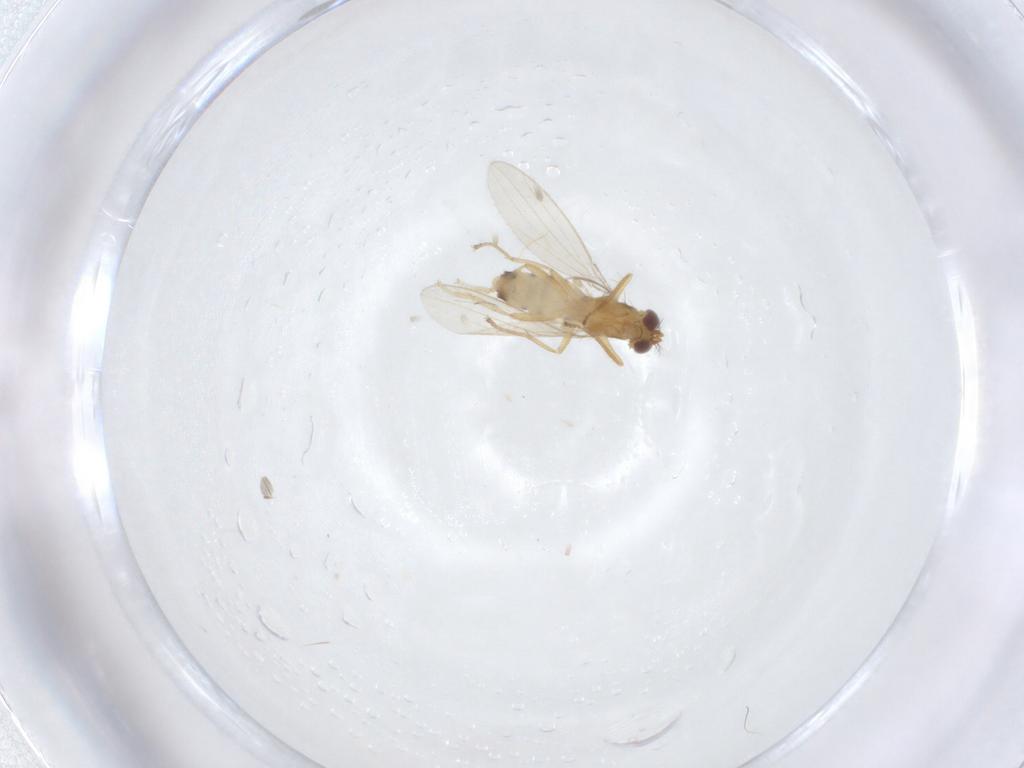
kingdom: Animalia
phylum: Arthropoda
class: Insecta
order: Diptera
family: Periscelididae
